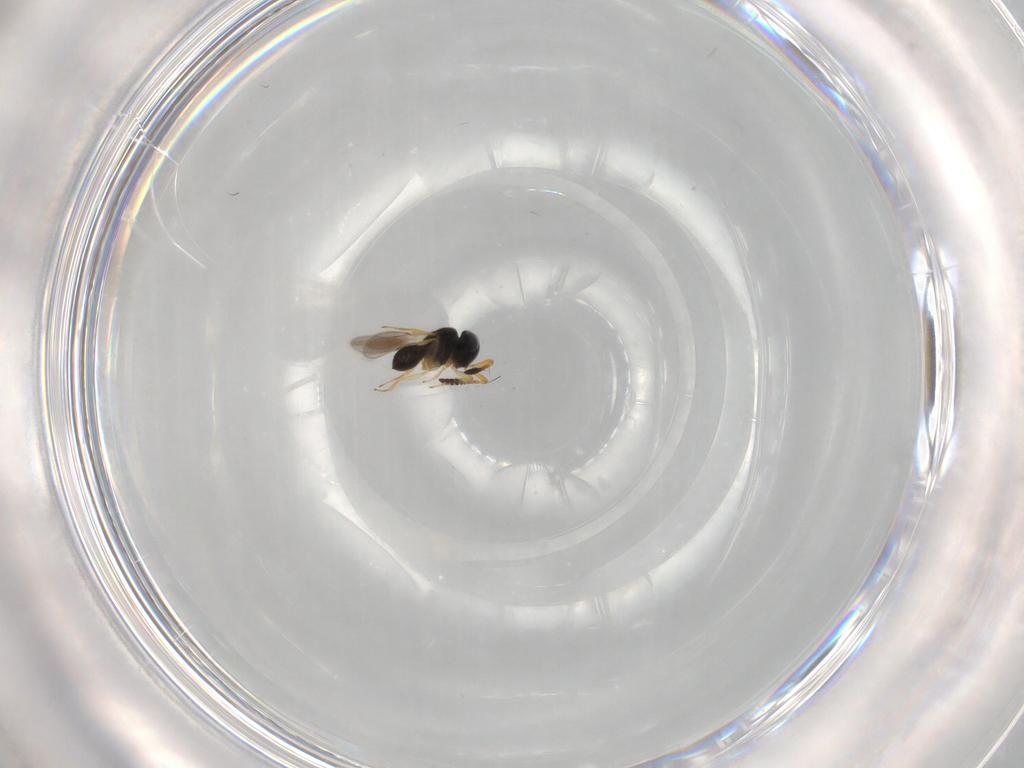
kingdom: Animalia
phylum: Arthropoda
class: Insecta
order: Hymenoptera
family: Scelionidae
